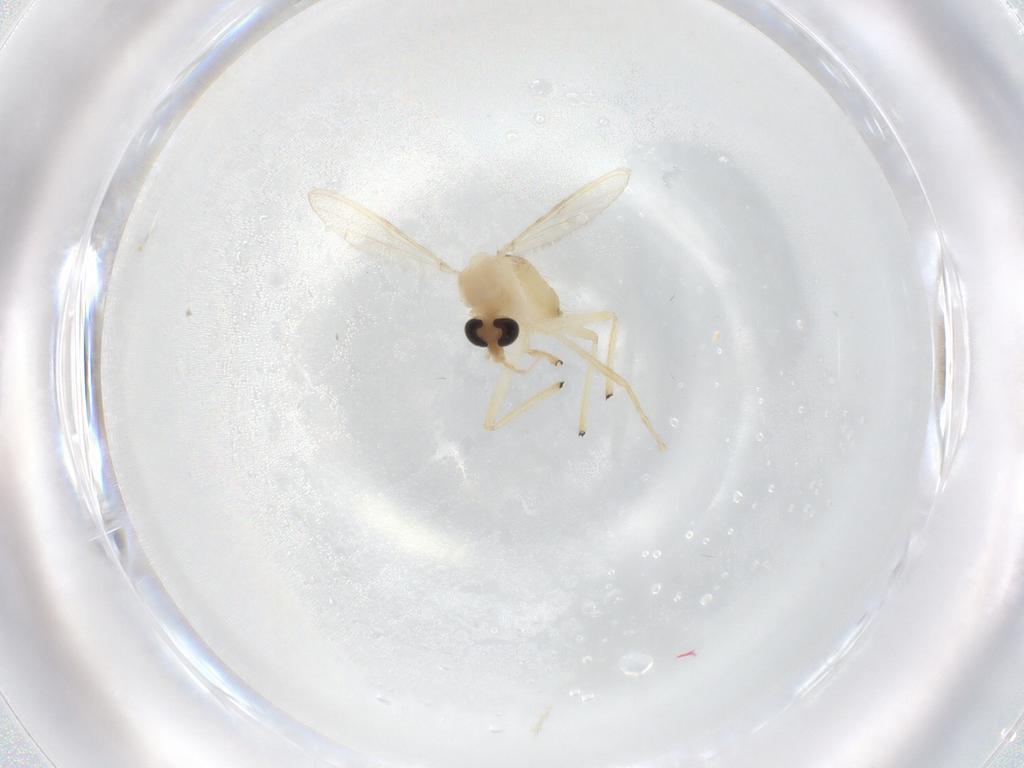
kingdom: Animalia
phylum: Arthropoda
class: Insecta
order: Diptera
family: Chironomidae
